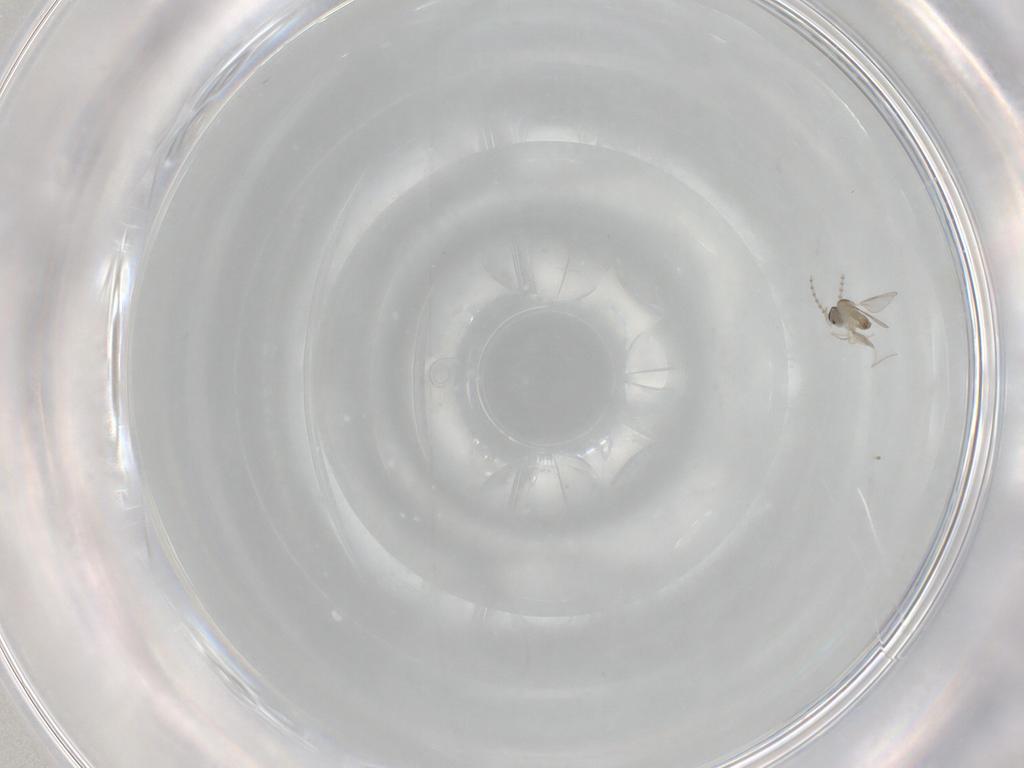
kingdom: Animalia
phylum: Arthropoda
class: Insecta
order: Diptera
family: Cecidomyiidae
